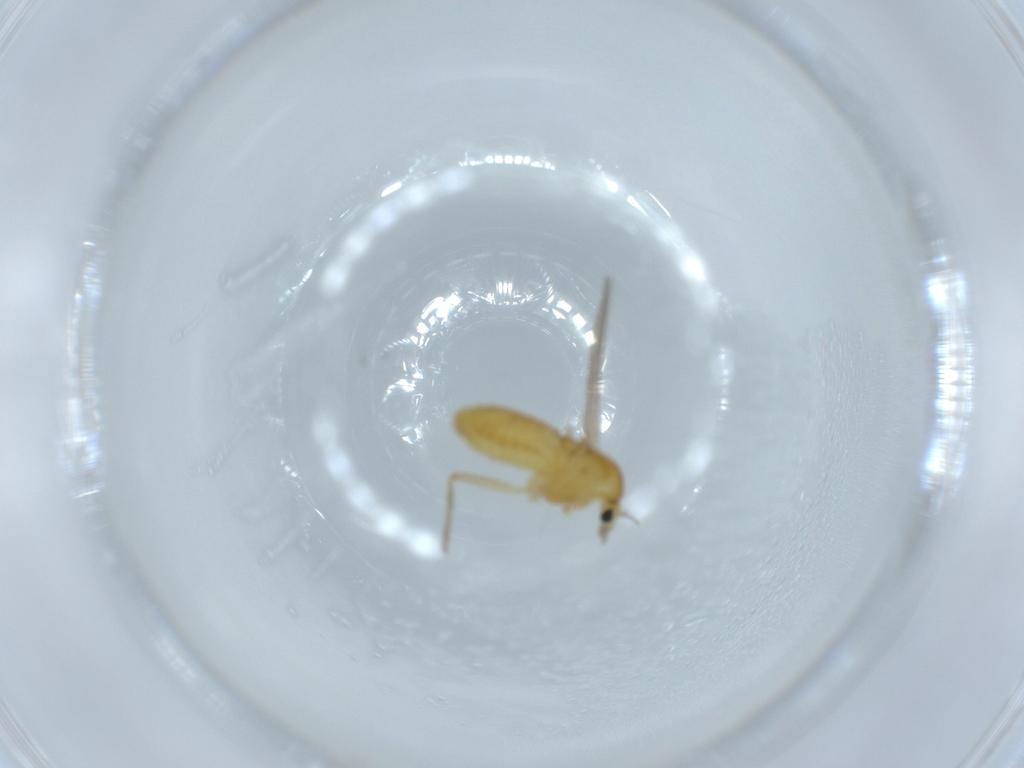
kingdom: Animalia
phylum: Arthropoda
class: Insecta
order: Diptera
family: Chironomidae
